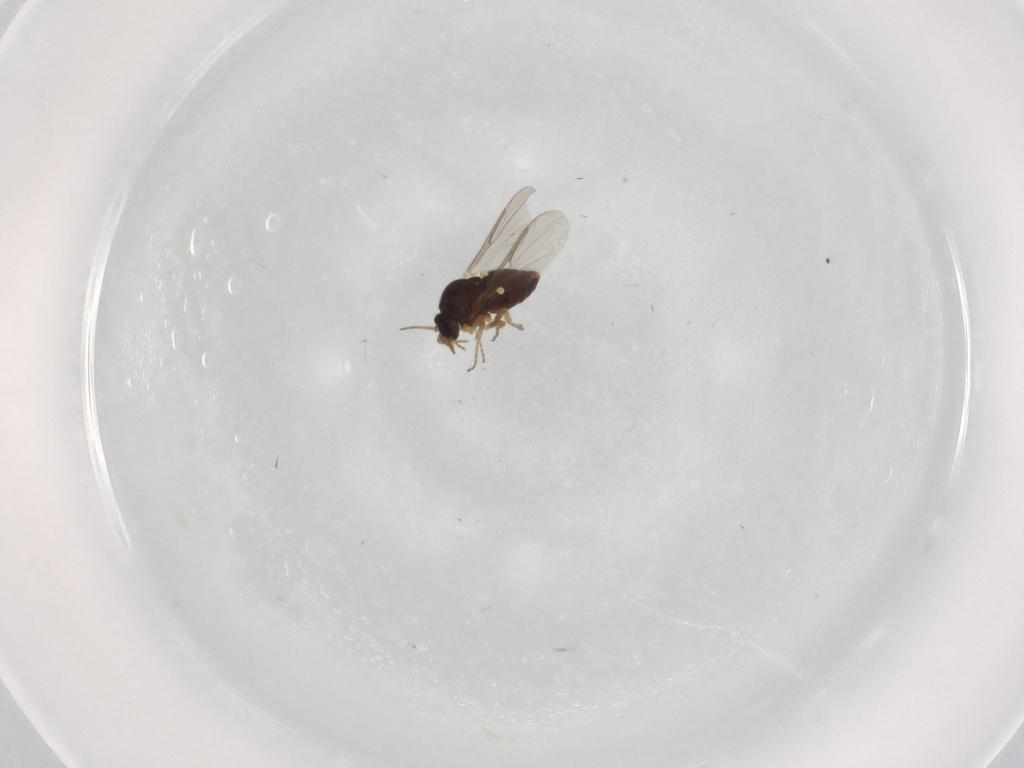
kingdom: Animalia
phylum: Arthropoda
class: Insecta
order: Diptera
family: Ceratopogonidae
